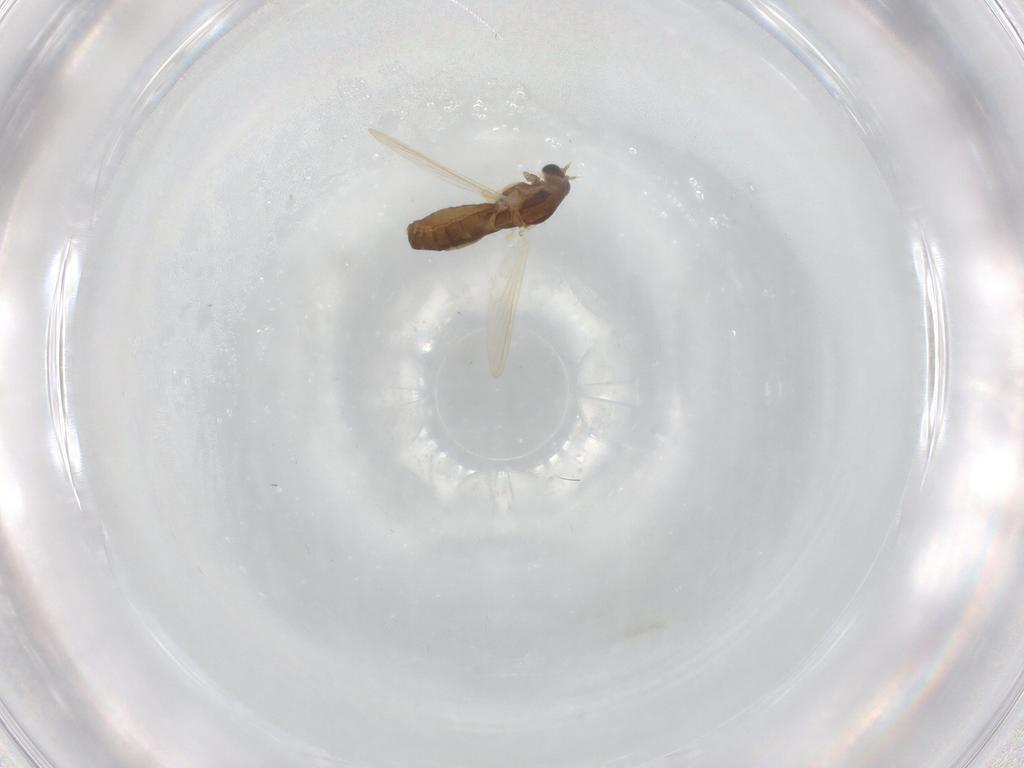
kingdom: Animalia
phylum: Arthropoda
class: Insecta
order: Diptera
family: Chironomidae
